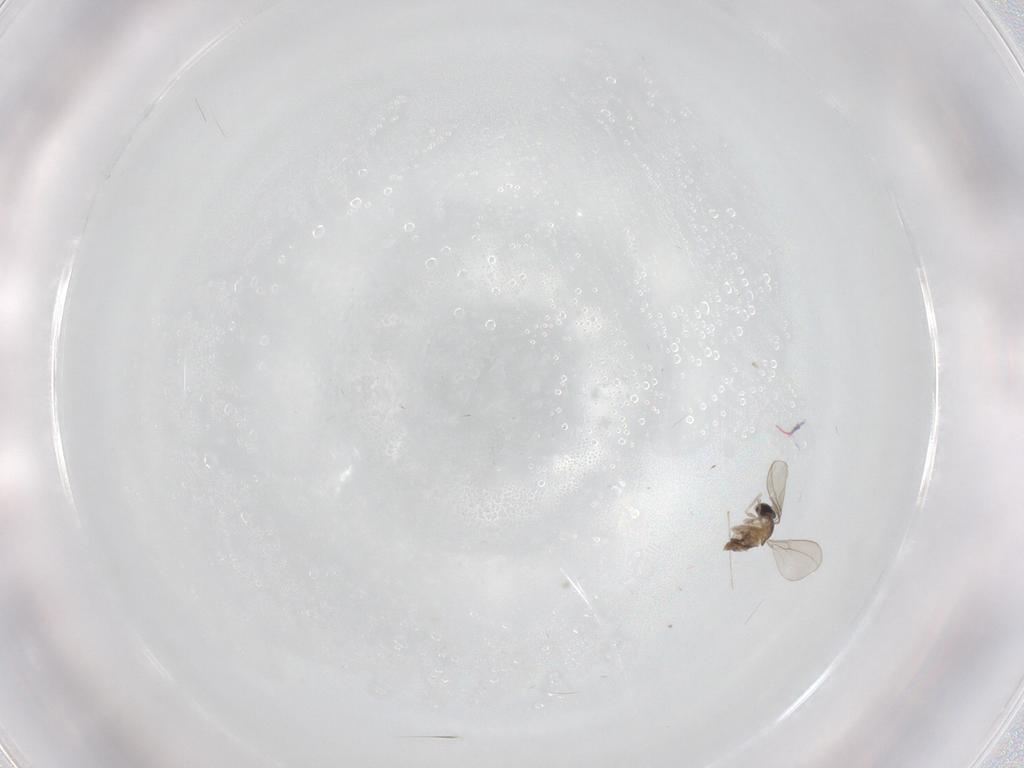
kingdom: Animalia
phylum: Arthropoda
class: Insecta
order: Diptera
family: Cecidomyiidae
